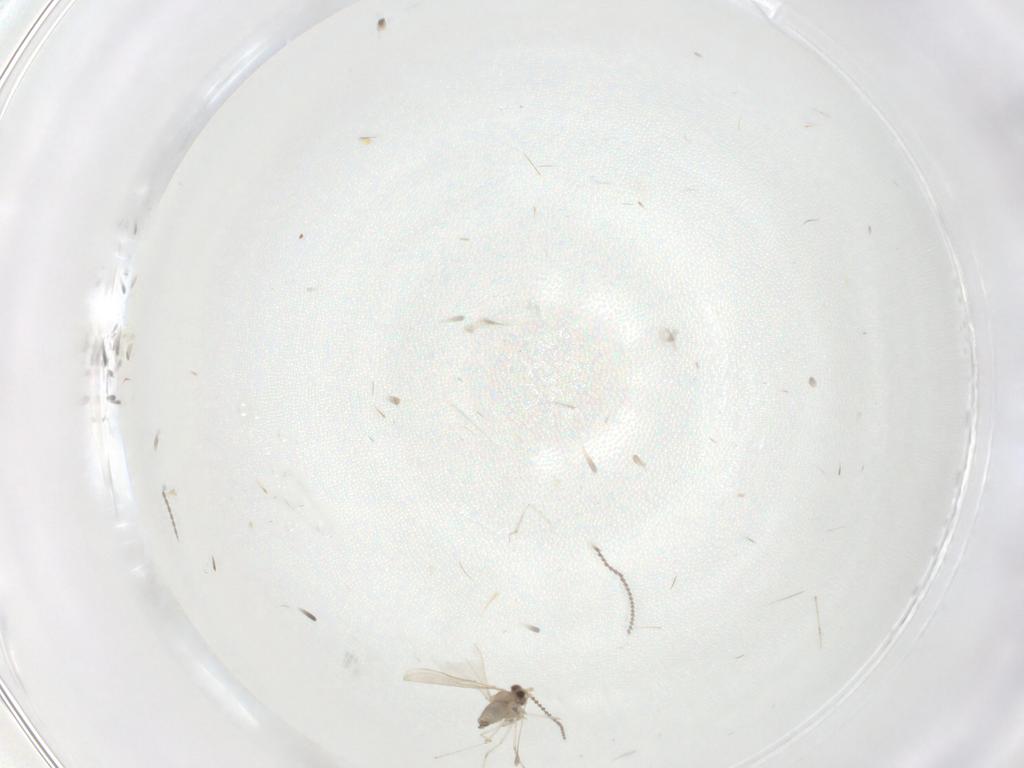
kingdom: Animalia
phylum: Arthropoda
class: Insecta
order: Diptera
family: Cecidomyiidae
